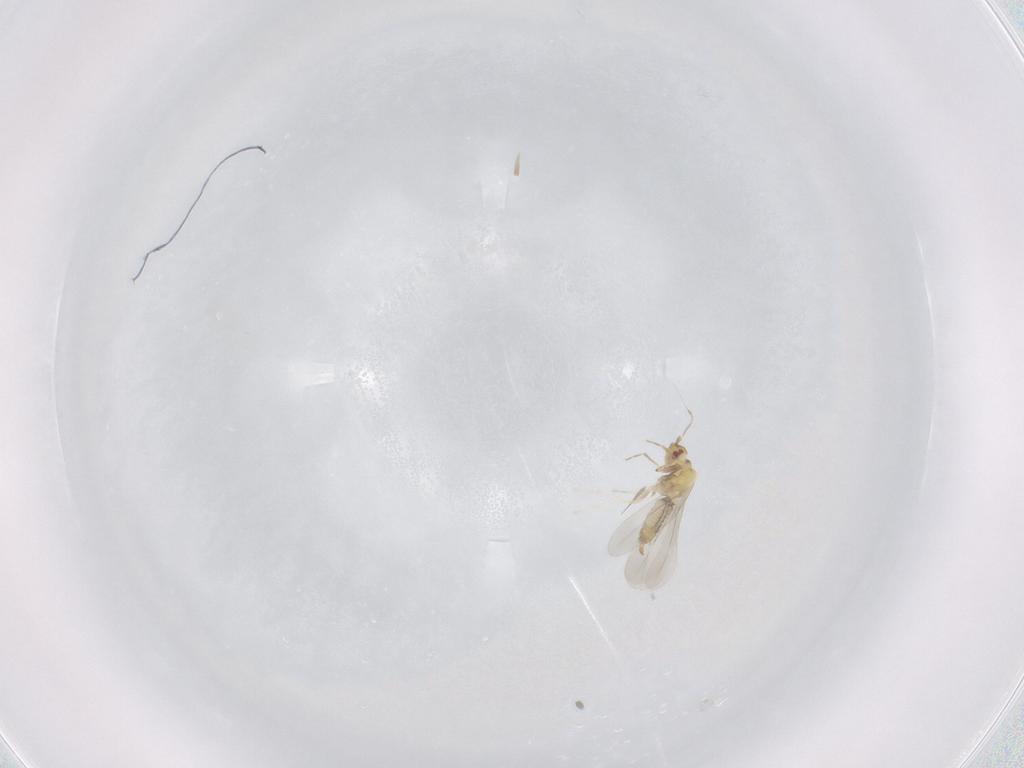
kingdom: Animalia
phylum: Arthropoda
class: Insecta
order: Hemiptera
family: Aleyrodidae
